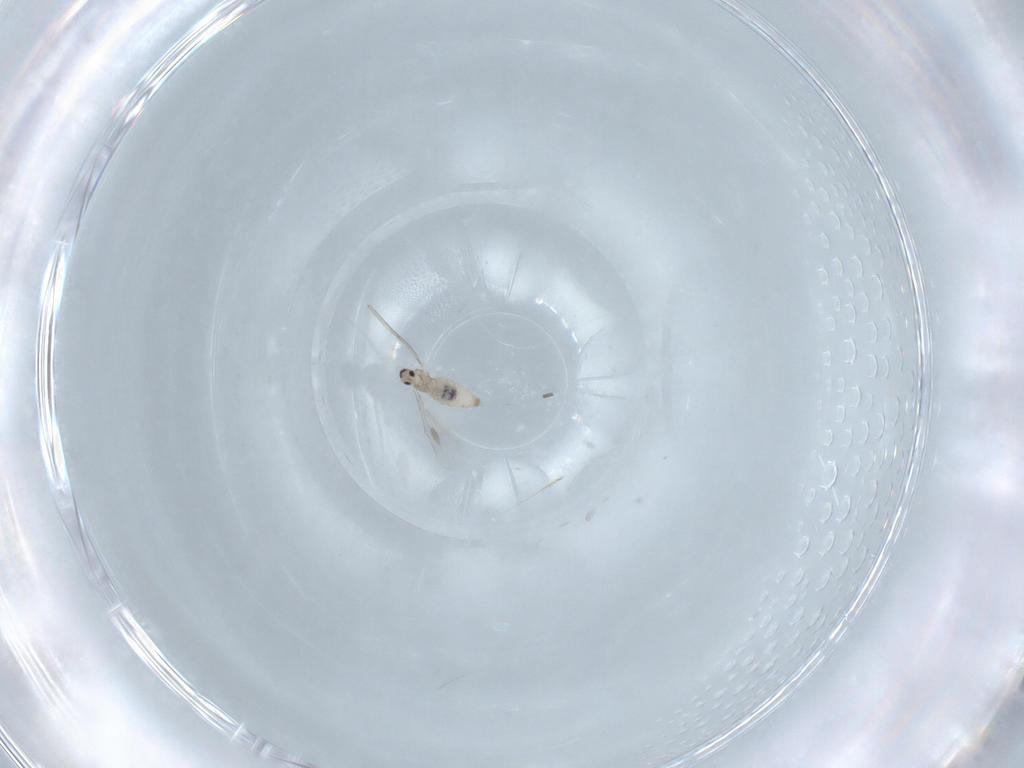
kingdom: Animalia
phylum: Arthropoda
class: Insecta
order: Diptera
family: Cecidomyiidae
